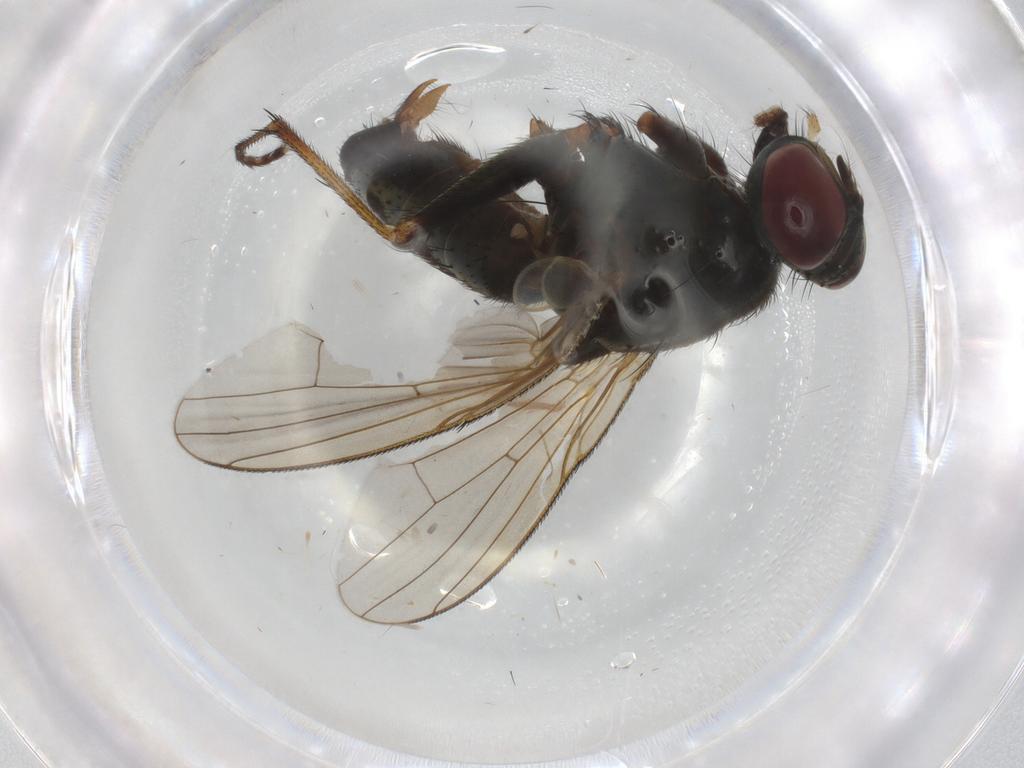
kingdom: Animalia
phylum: Arthropoda
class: Insecta
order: Diptera
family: Muscidae
